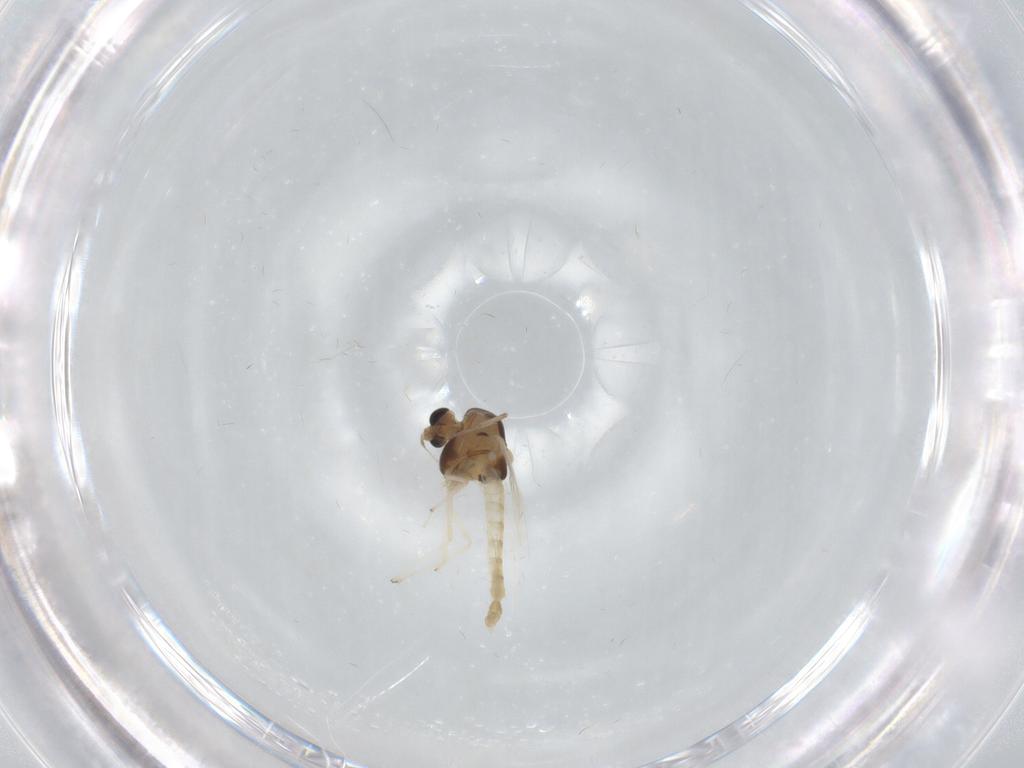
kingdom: Animalia
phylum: Arthropoda
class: Insecta
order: Diptera
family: Chironomidae
